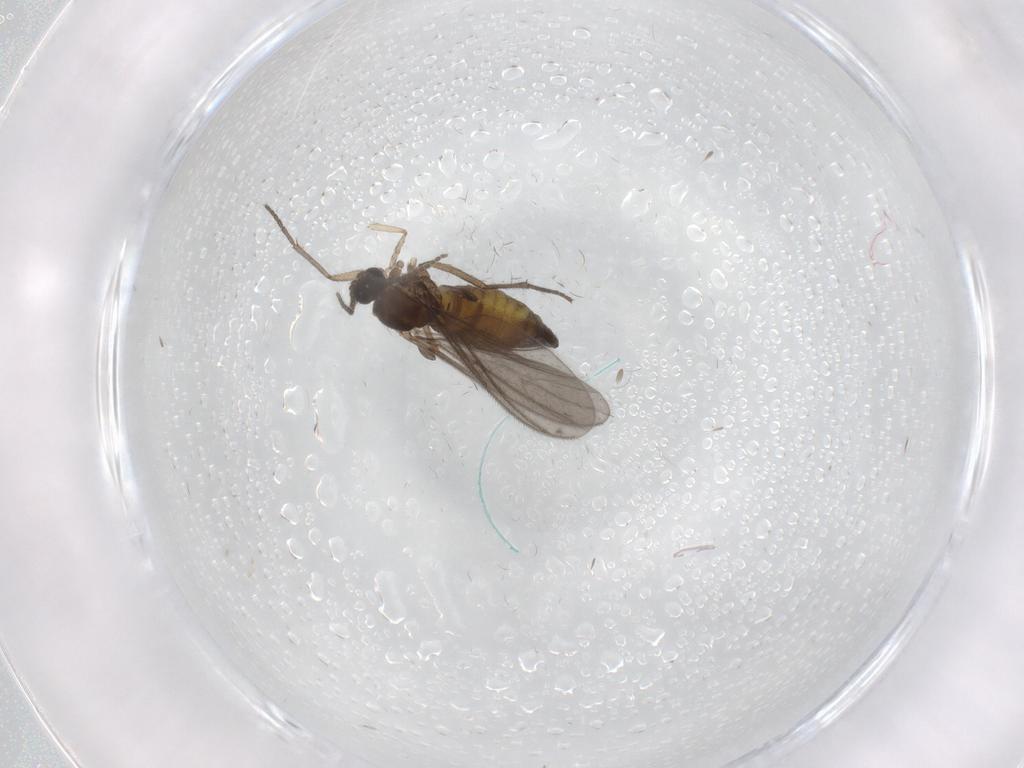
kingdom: Animalia
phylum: Arthropoda
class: Insecta
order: Diptera
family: Sciaridae
